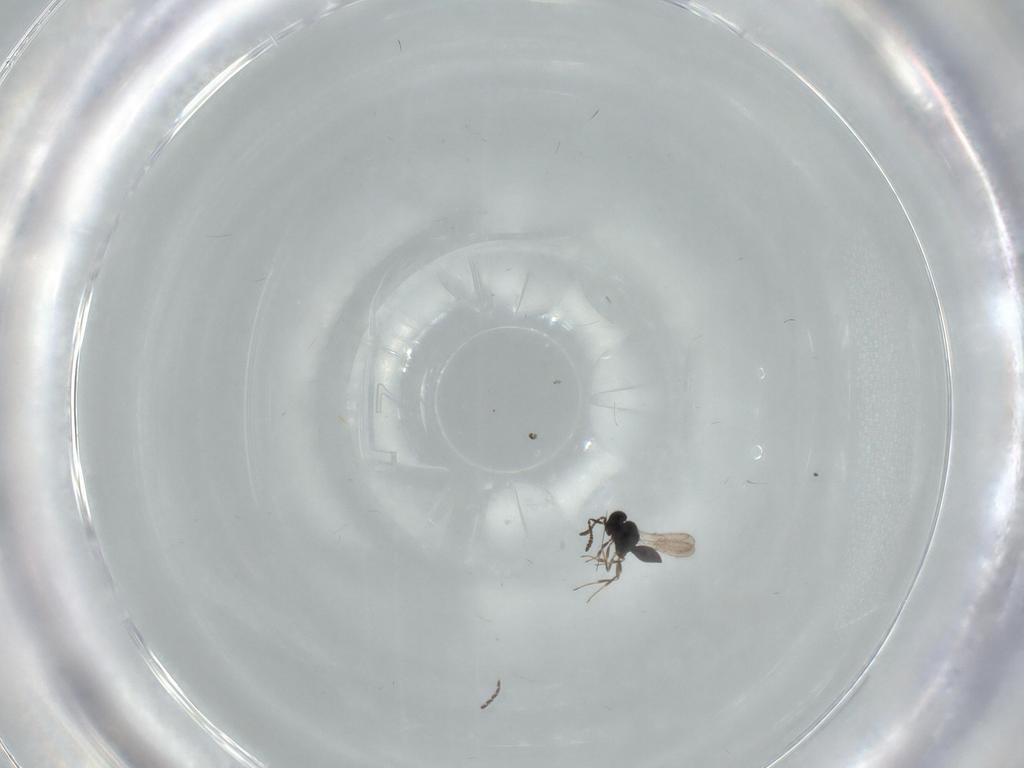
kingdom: Animalia
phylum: Arthropoda
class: Insecta
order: Hymenoptera
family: Scelionidae
